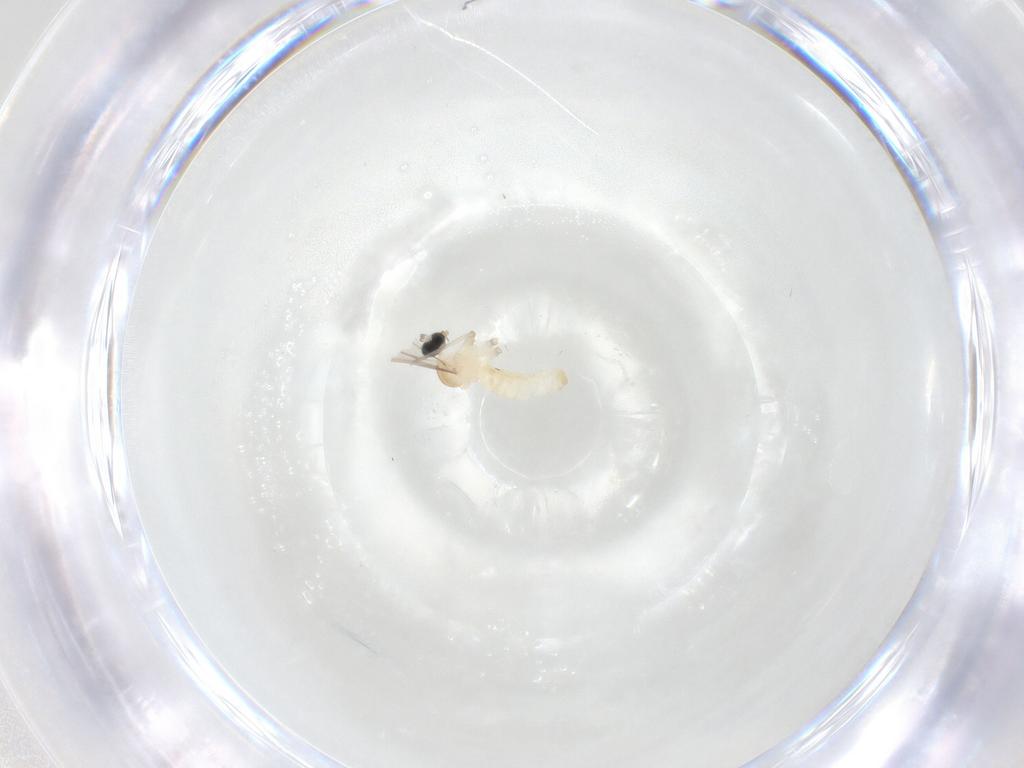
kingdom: Animalia
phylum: Arthropoda
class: Insecta
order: Diptera
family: Cecidomyiidae
